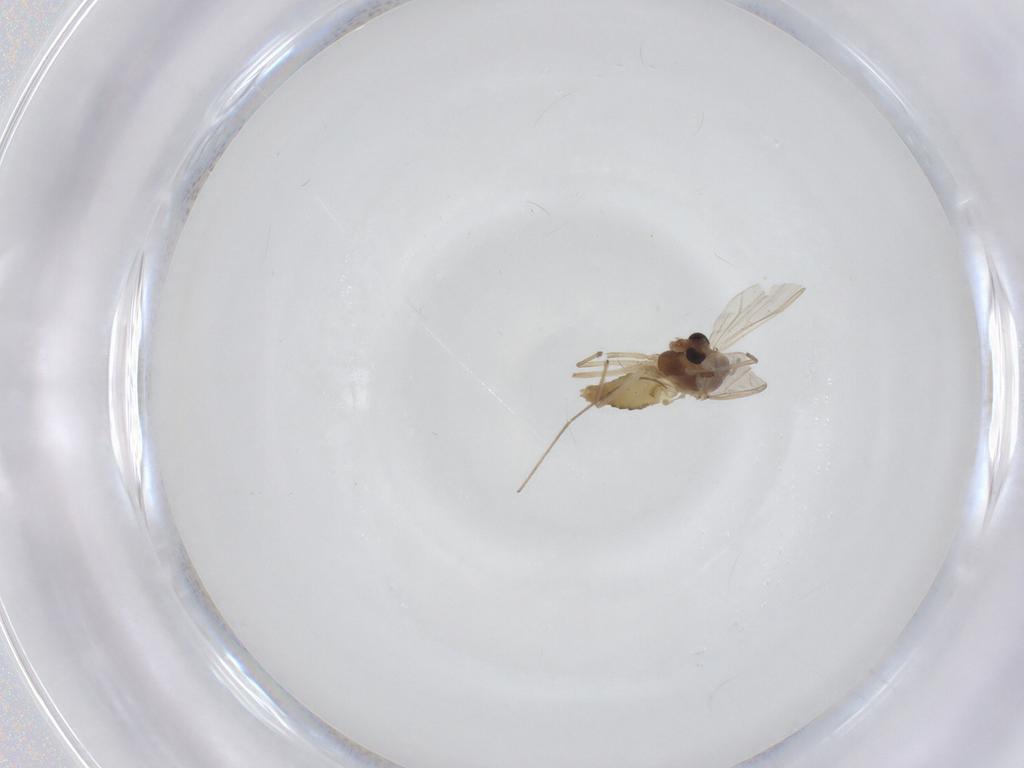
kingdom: Animalia
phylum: Arthropoda
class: Insecta
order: Diptera
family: Chironomidae
